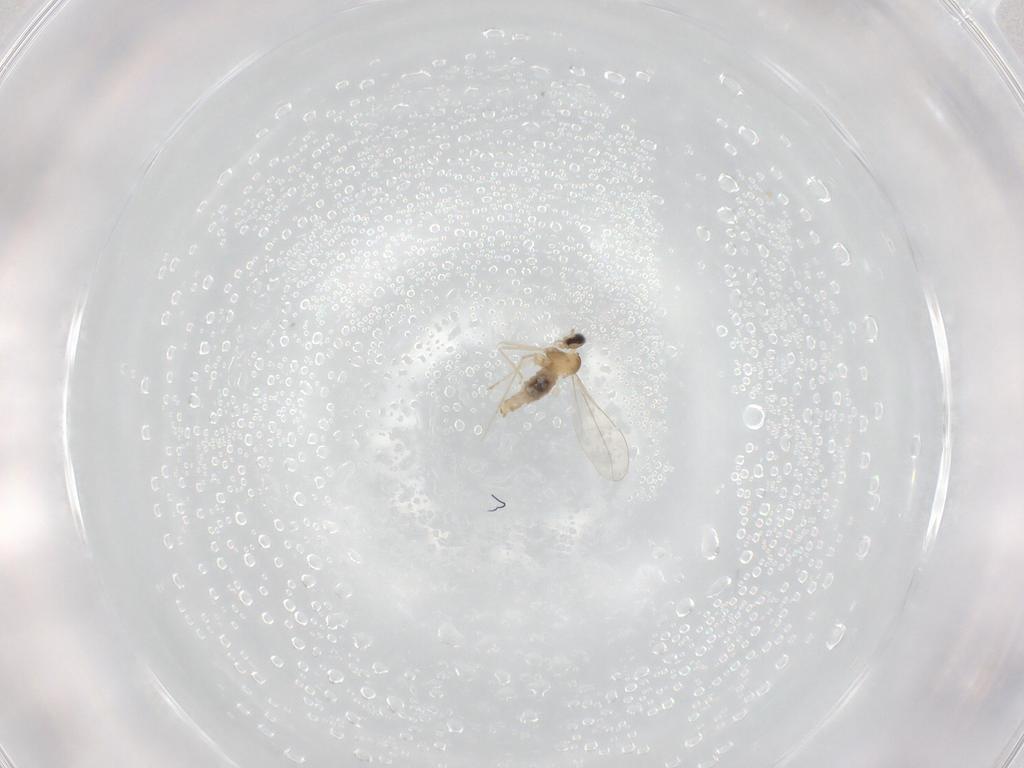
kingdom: Animalia
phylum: Arthropoda
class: Insecta
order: Diptera
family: Cecidomyiidae
